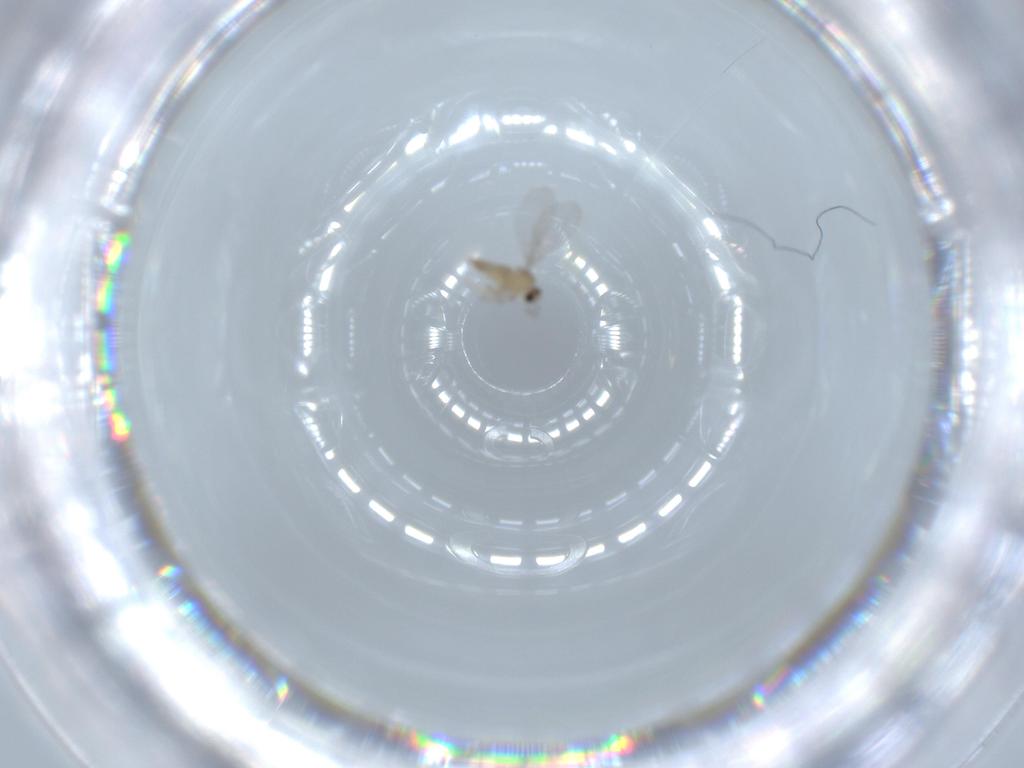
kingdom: Animalia
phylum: Arthropoda
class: Insecta
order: Diptera
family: Cecidomyiidae
